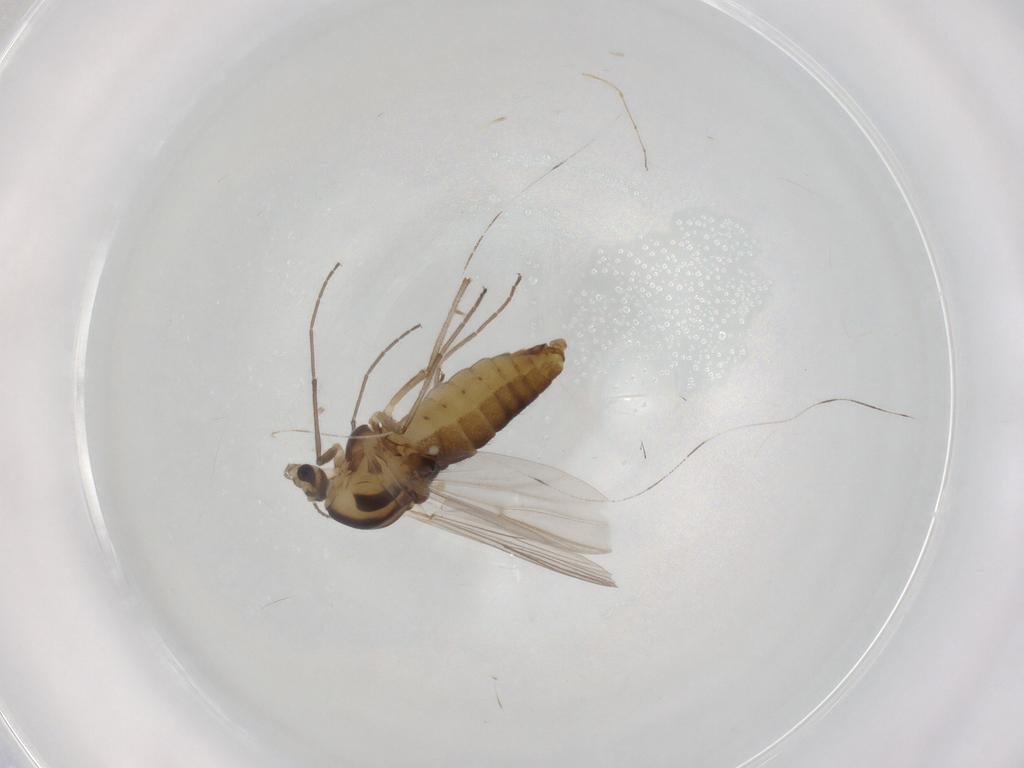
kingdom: Animalia
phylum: Arthropoda
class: Insecta
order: Diptera
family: Chironomidae
